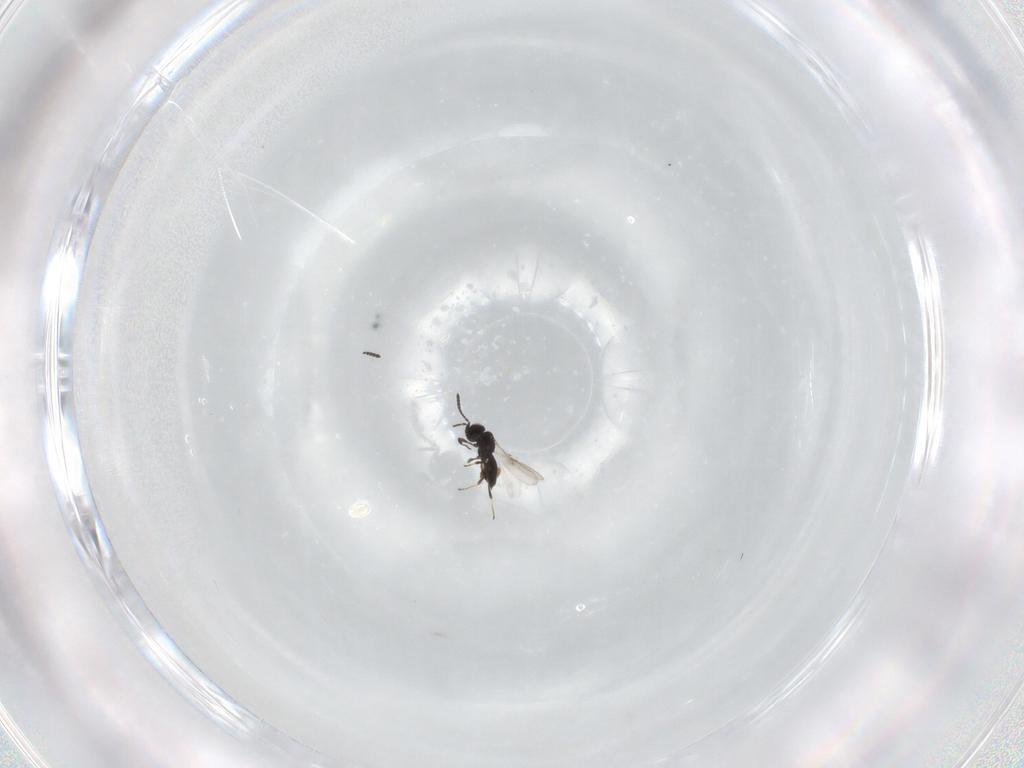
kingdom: Animalia
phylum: Arthropoda
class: Insecta
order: Hymenoptera
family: Scelionidae
